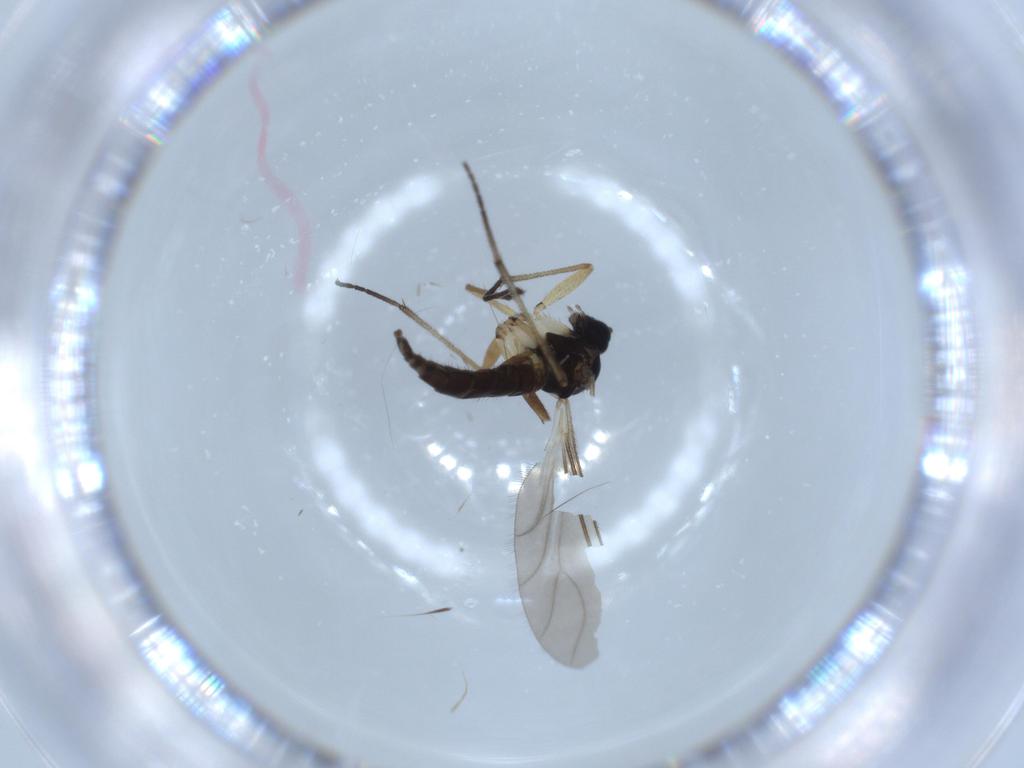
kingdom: Animalia
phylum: Arthropoda
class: Insecta
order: Diptera
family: Sciaridae
